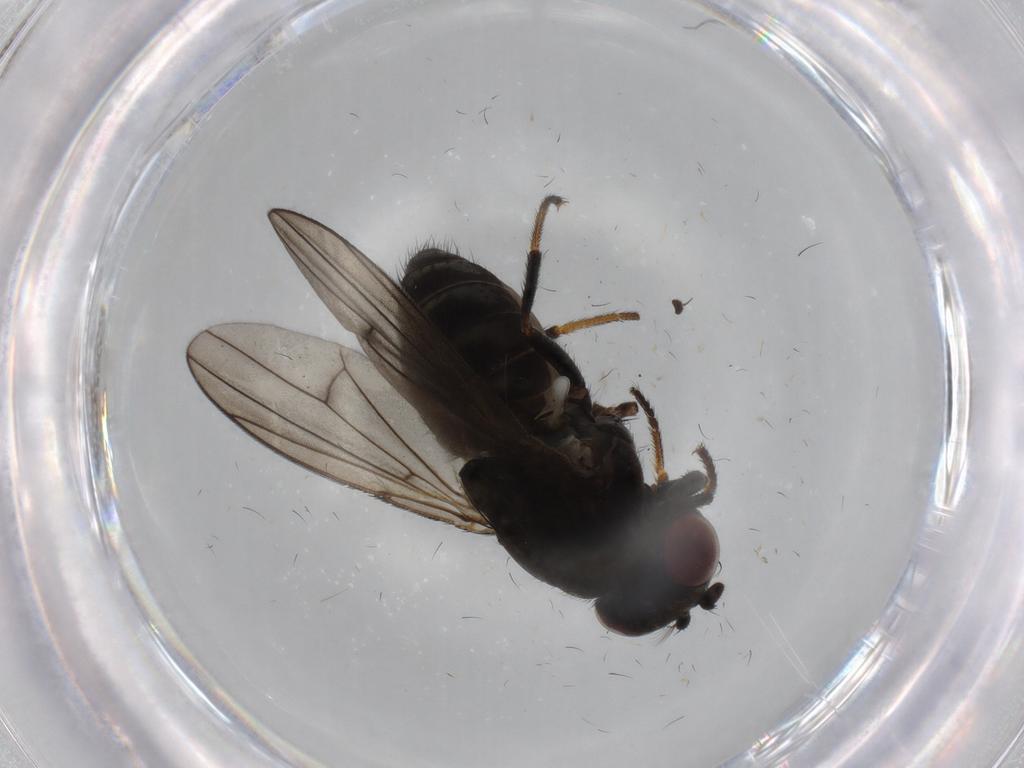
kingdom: Animalia
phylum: Arthropoda
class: Insecta
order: Diptera
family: Ephydridae
